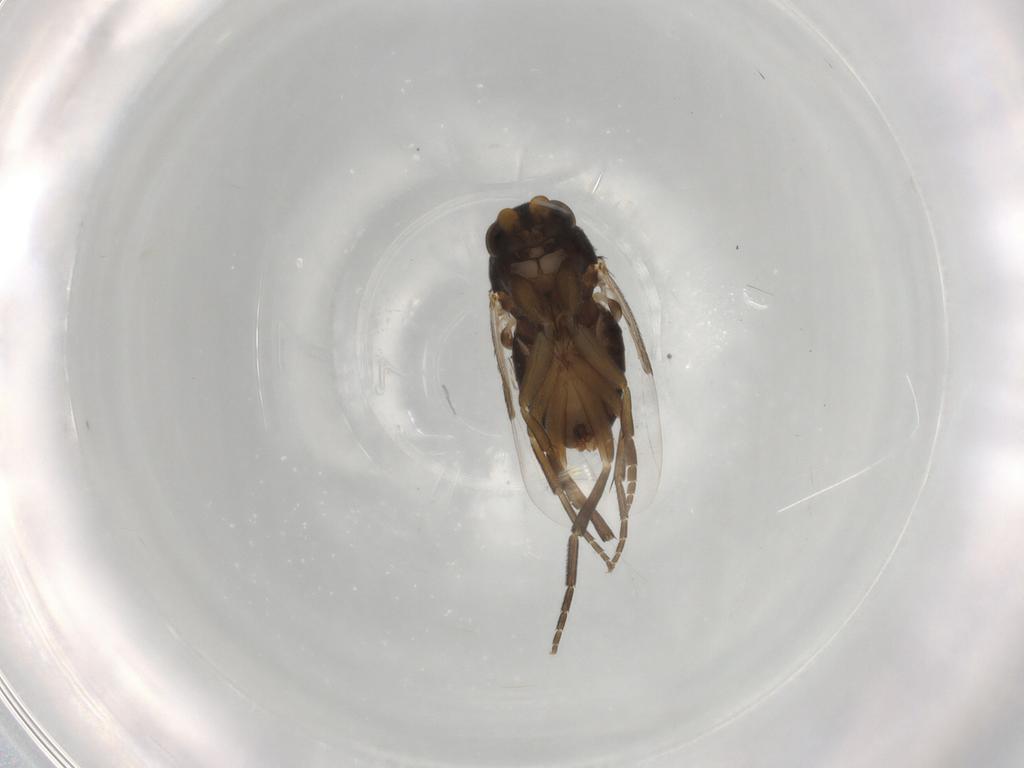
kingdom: Animalia
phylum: Arthropoda
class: Insecta
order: Diptera
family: Phoridae
